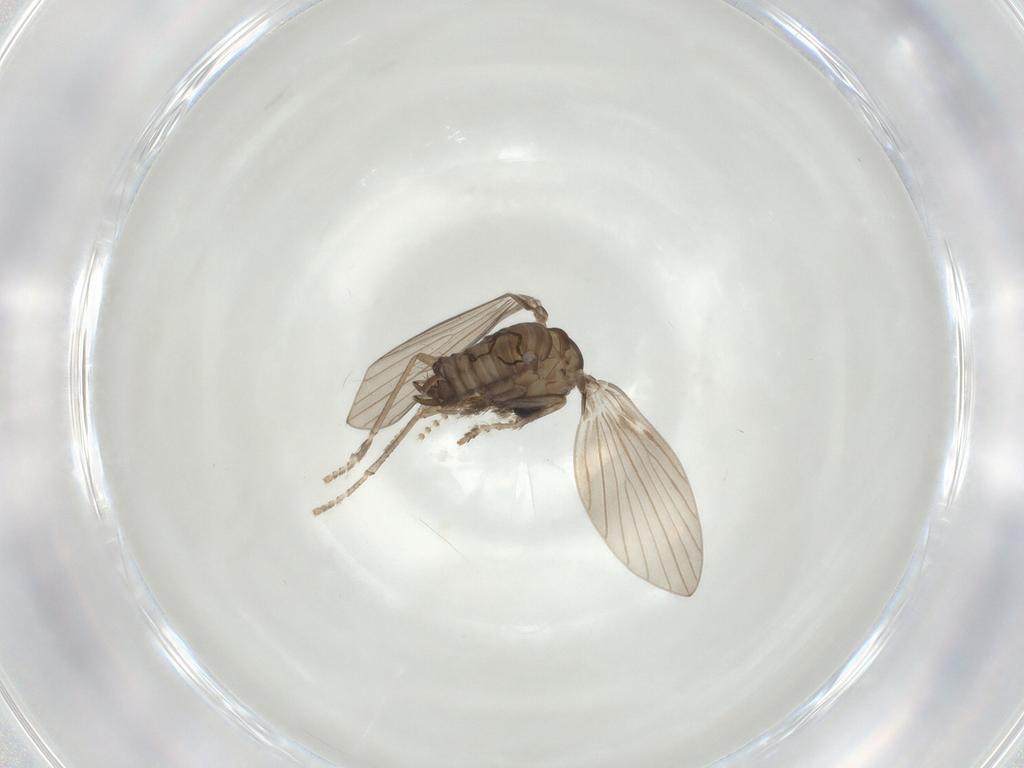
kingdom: Animalia
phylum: Arthropoda
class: Insecta
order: Diptera
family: Psychodidae
